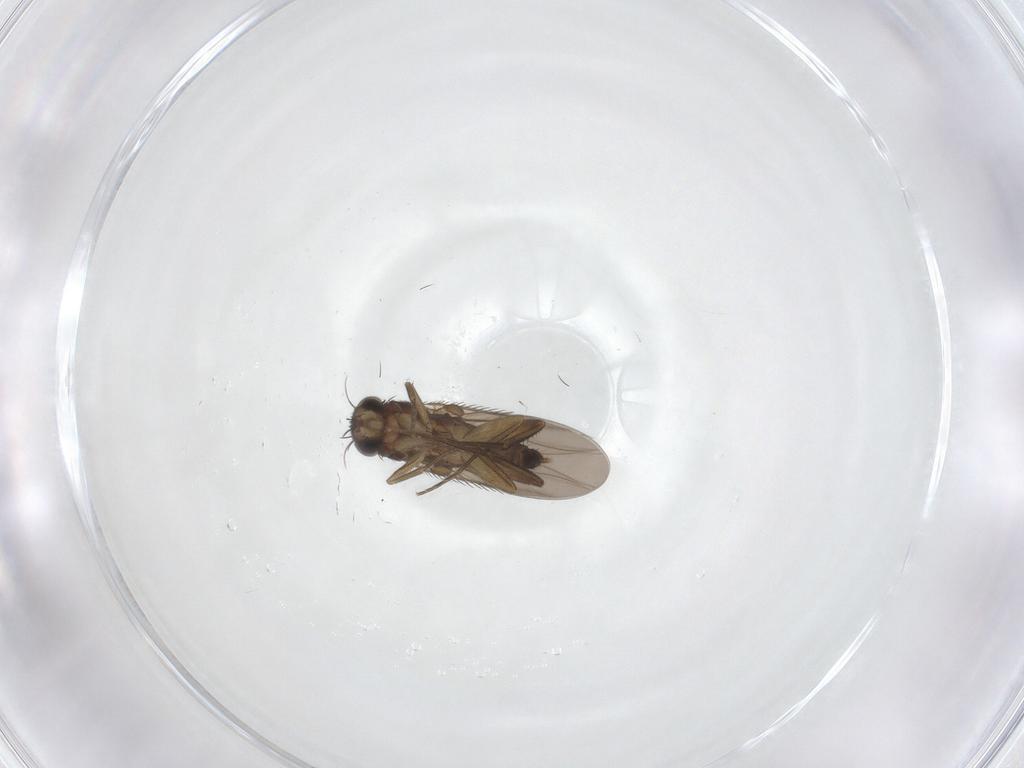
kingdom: Animalia
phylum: Arthropoda
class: Insecta
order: Diptera
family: Phoridae
